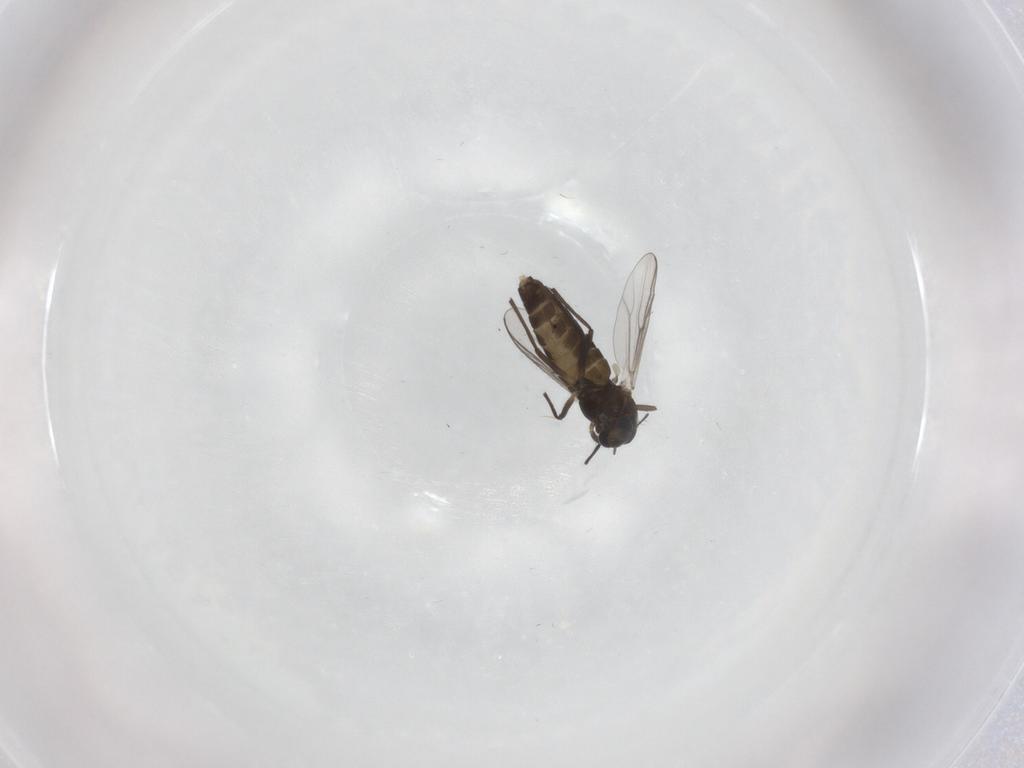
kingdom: Animalia
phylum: Arthropoda
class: Insecta
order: Diptera
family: Chironomidae
